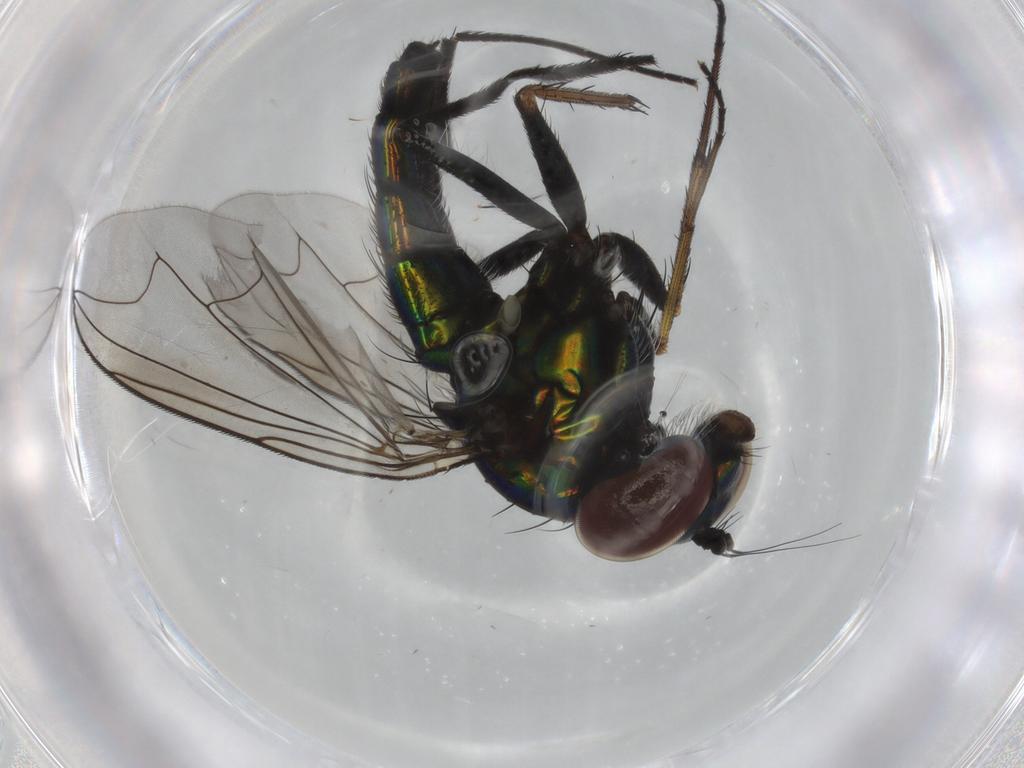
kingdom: Animalia
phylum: Arthropoda
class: Insecta
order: Diptera
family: Dolichopodidae
